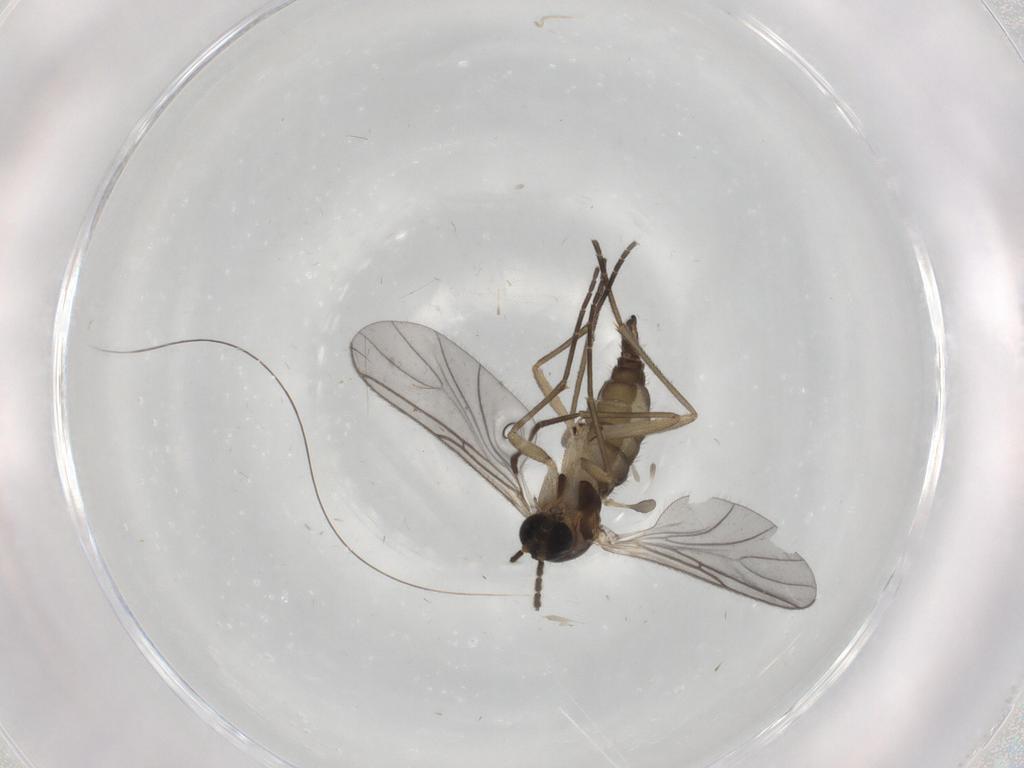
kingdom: Animalia
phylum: Arthropoda
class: Insecta
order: Diptera
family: Sciaridae
